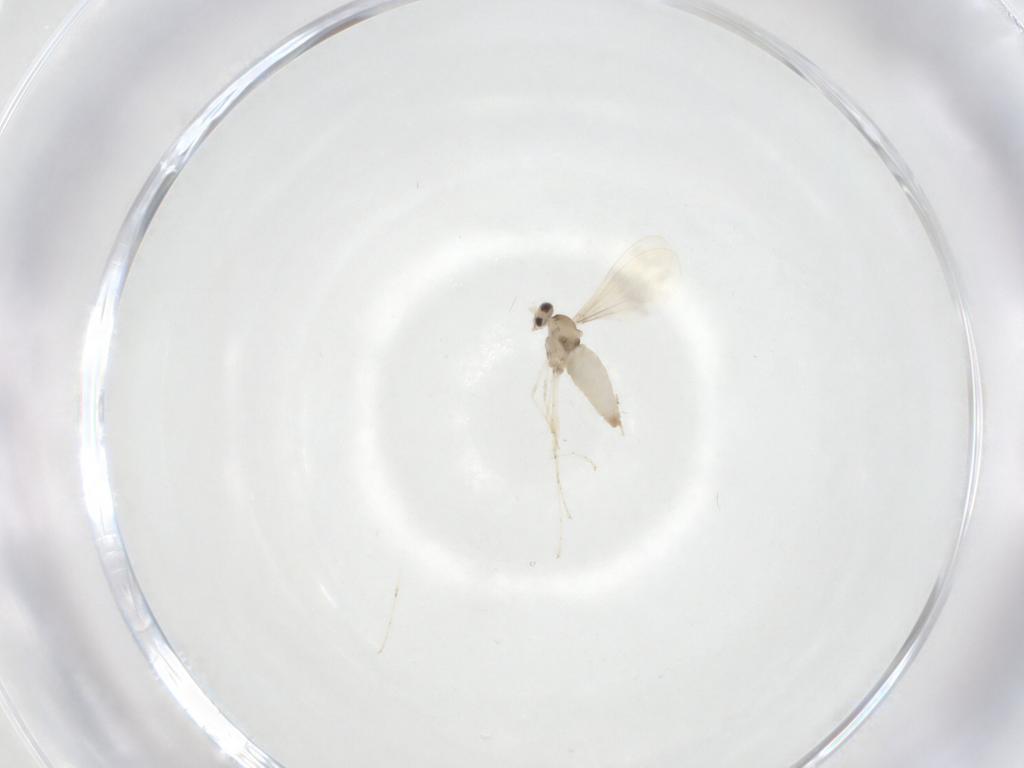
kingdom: Animalia
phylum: Arthropoda
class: Insecta
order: Diptera
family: Cecidomyiidae
